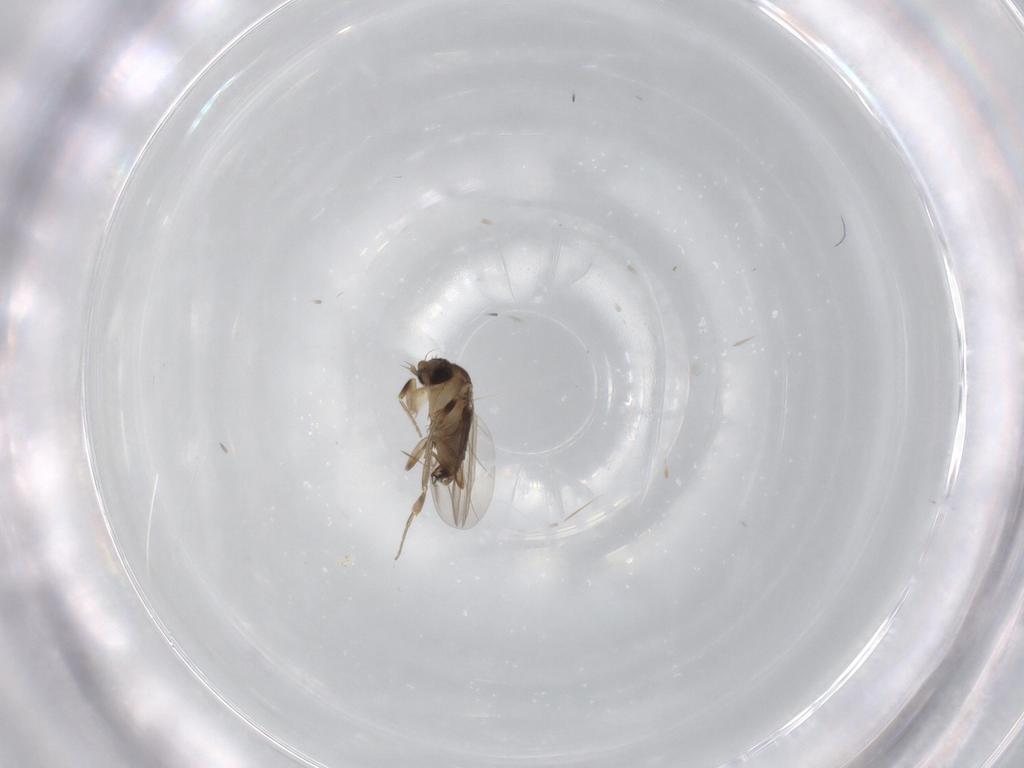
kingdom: Animalia
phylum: Arthropoda
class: Insecta
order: Diptera
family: Phoridae
